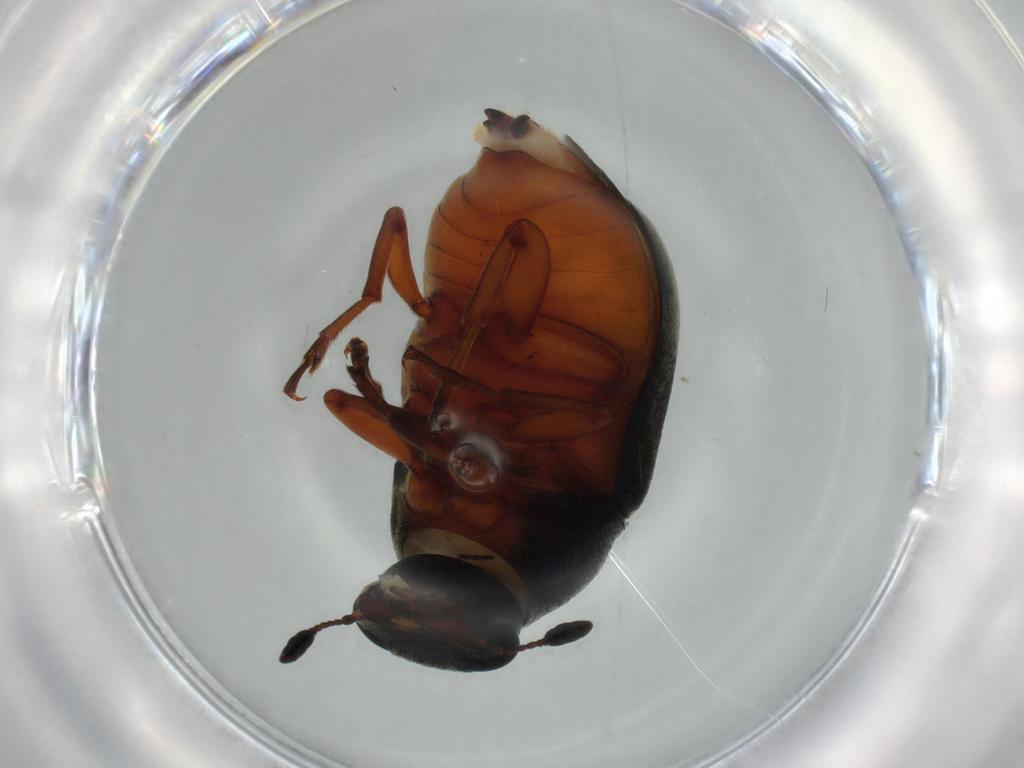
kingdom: Animalia
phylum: Arthropoda
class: Insecta
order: Coleoptera
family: Anthribidae
